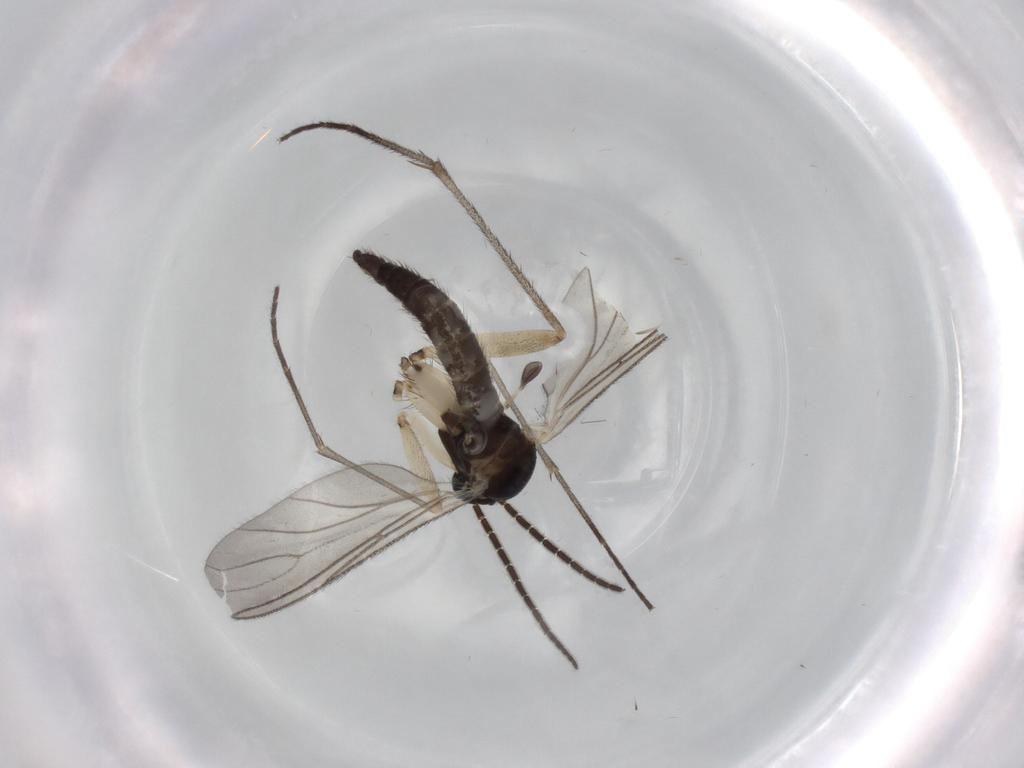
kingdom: Animalia
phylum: Arthropoda
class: Insecta
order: Diptera
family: Sciaridae
